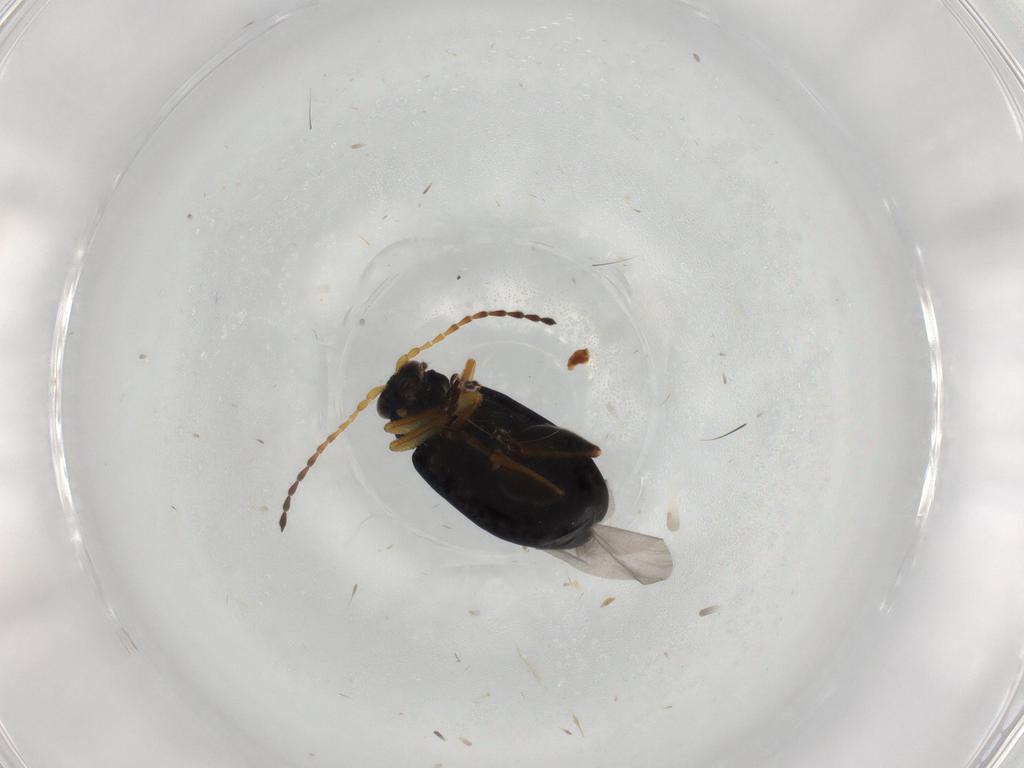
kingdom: Animalia
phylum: Arthropoda
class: Insecta
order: Coleoptera
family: Chrysomelidae
